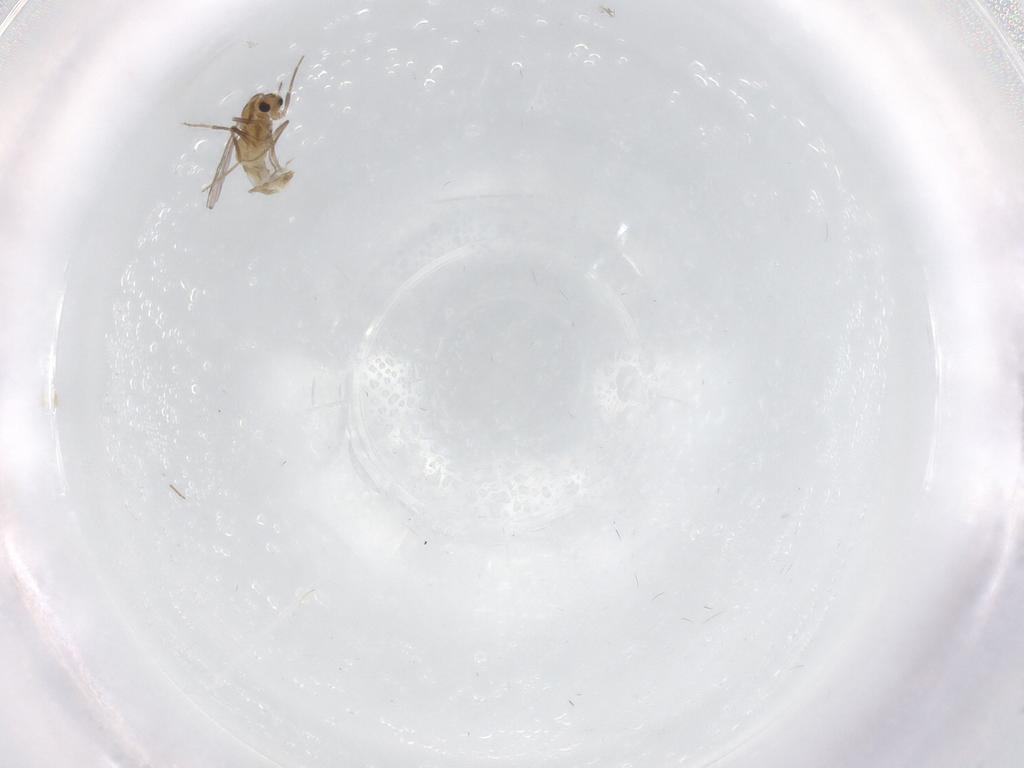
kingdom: Animalia
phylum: Arthropoda
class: Insecta
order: Diptera
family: Chironomidae
